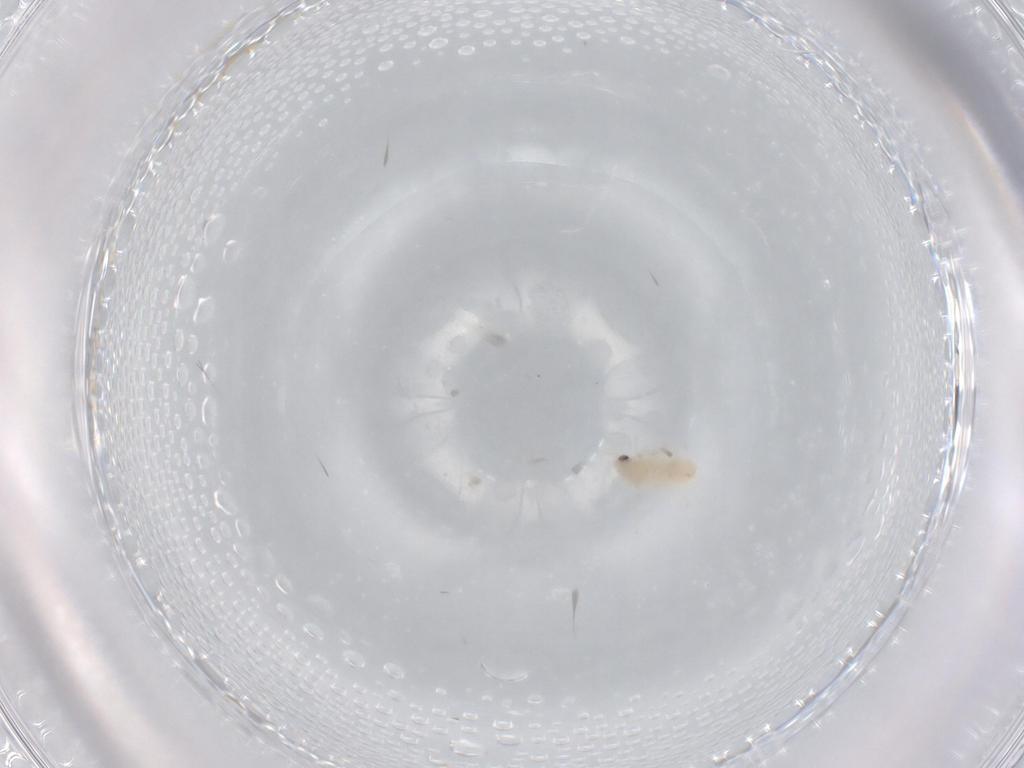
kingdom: Animalia
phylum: Arthropoda
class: Insecta
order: Hemiptera
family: Aleyrodidae
